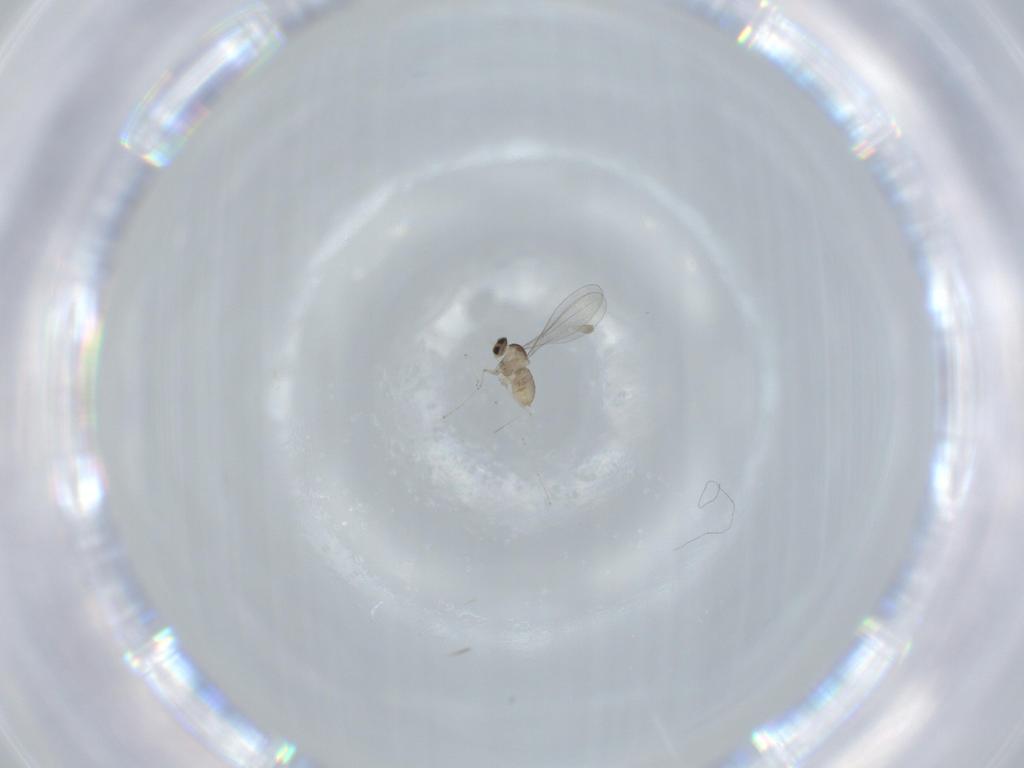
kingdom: Animalia
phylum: Arthropoda
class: Insecta
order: Diptera
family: Cecidomyiidae
